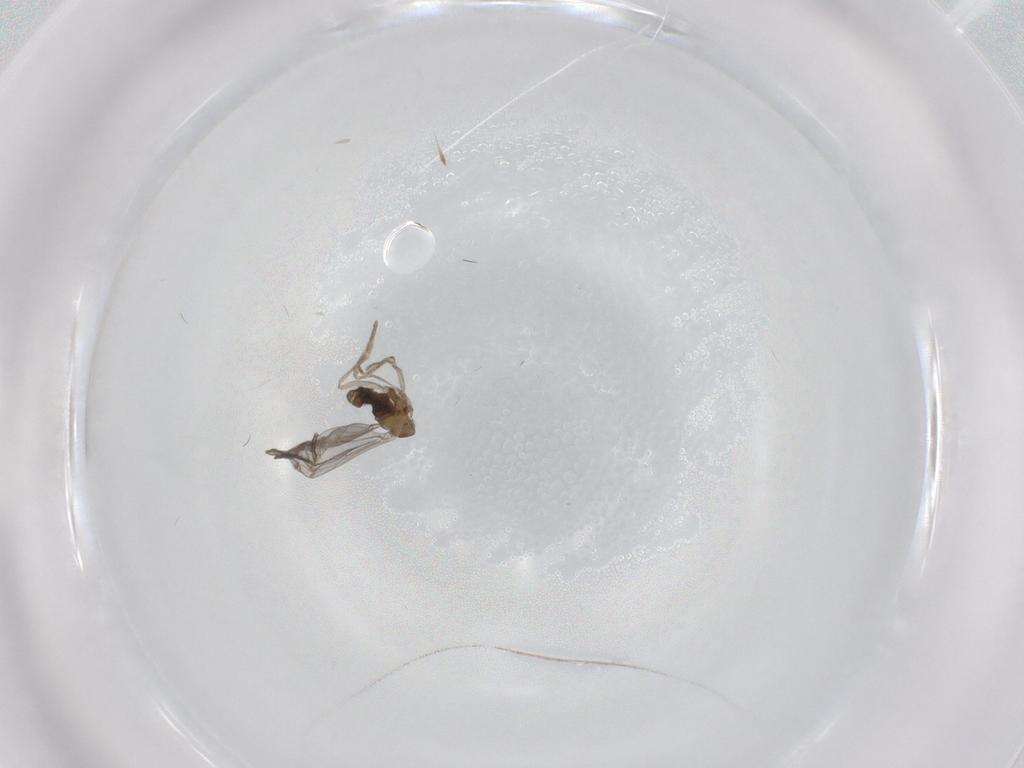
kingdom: Animalia
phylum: Arthropoda
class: Insecta
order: Diptera
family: Cecidomyiidae
